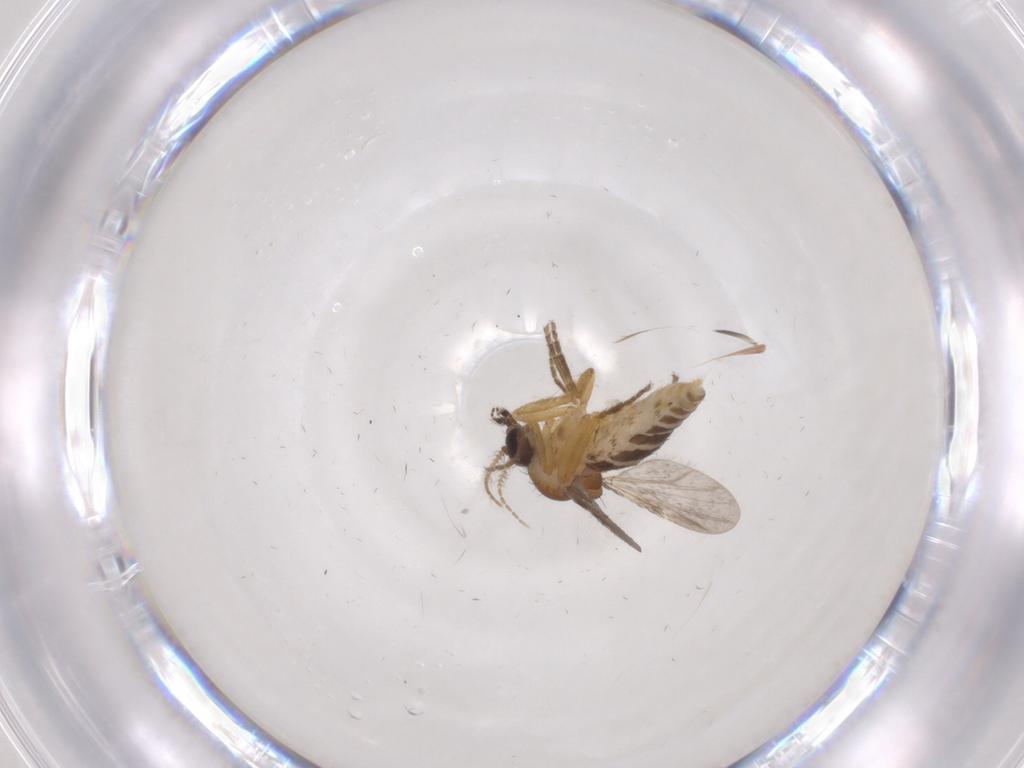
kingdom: Animalia
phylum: Arthropoda
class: Insecta
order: Diptera
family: Ceratopogonidae
